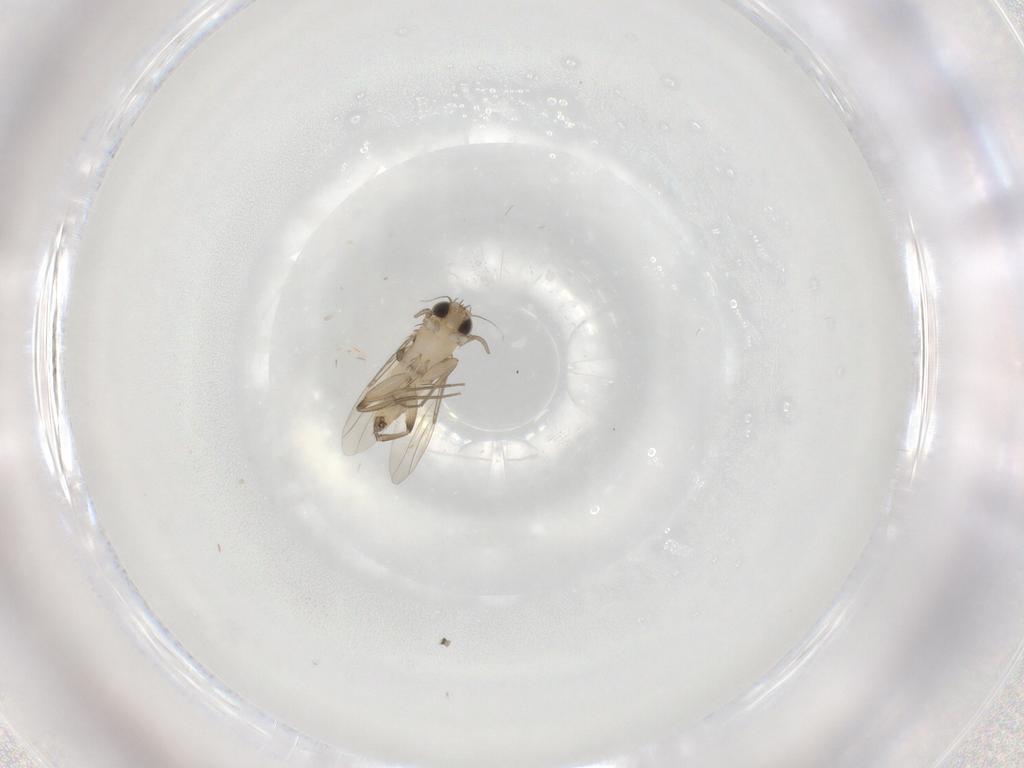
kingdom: Animalia
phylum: Arthropoda
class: Insecta
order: Diptera
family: Phoridae
